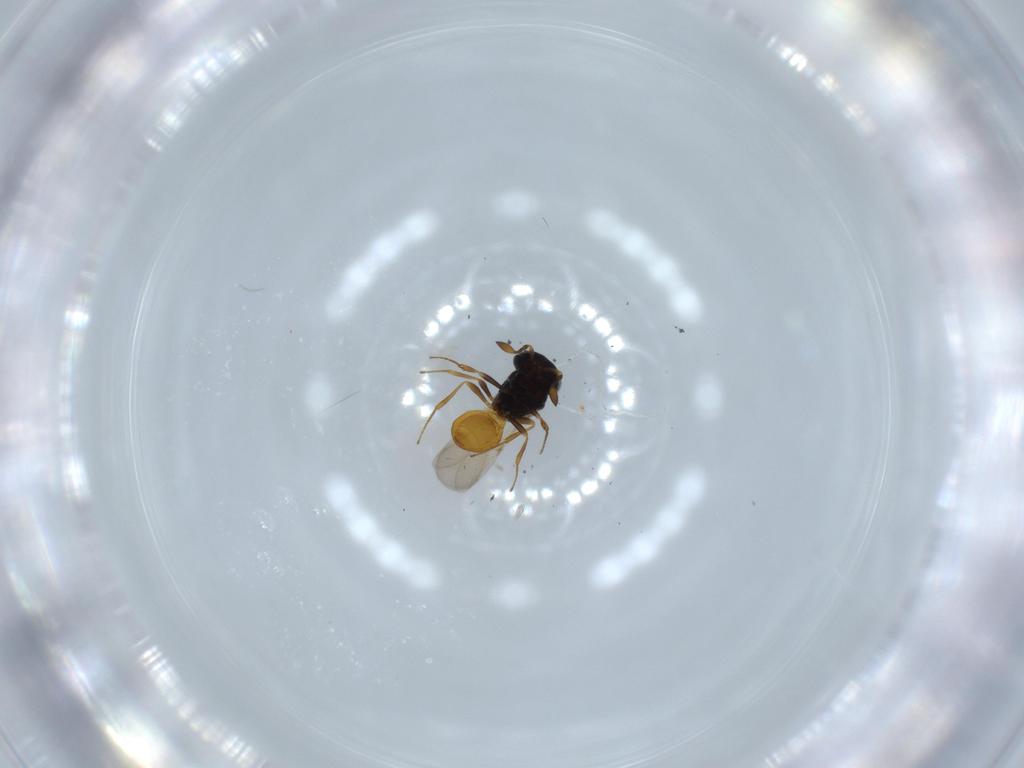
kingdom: Animalia
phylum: Arthropoda
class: Insecta
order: Hymenoptera
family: Scelionidae
